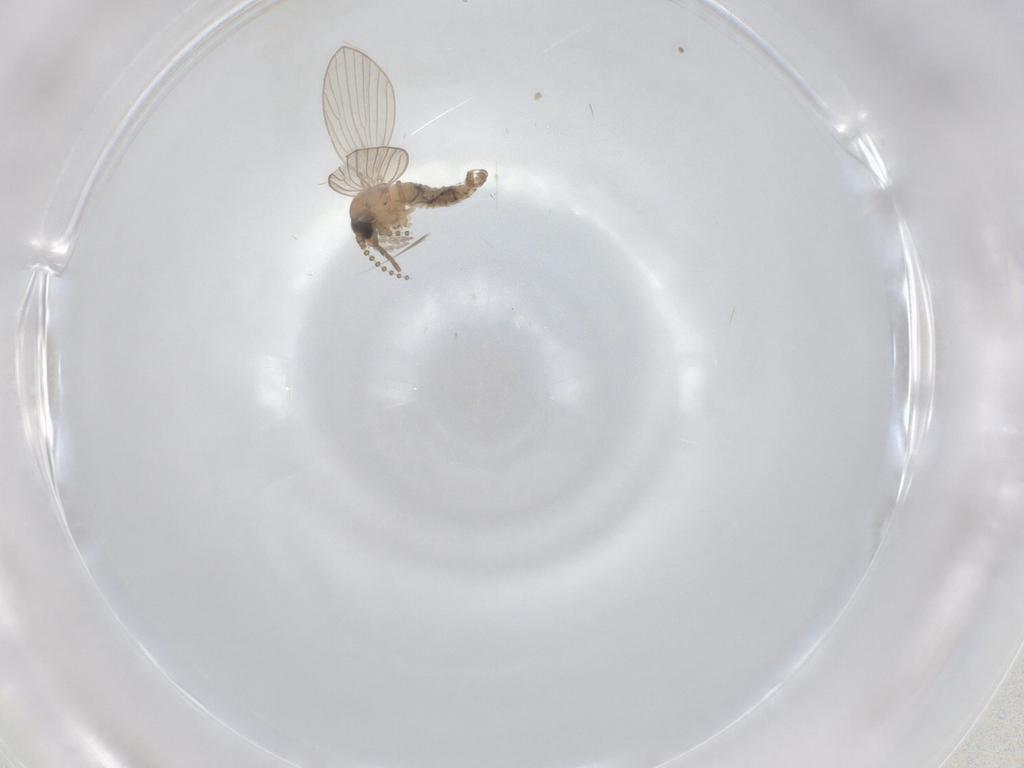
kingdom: Animalia
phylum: Arthropoda
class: Insecta
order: Diptera
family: Psychodidae
